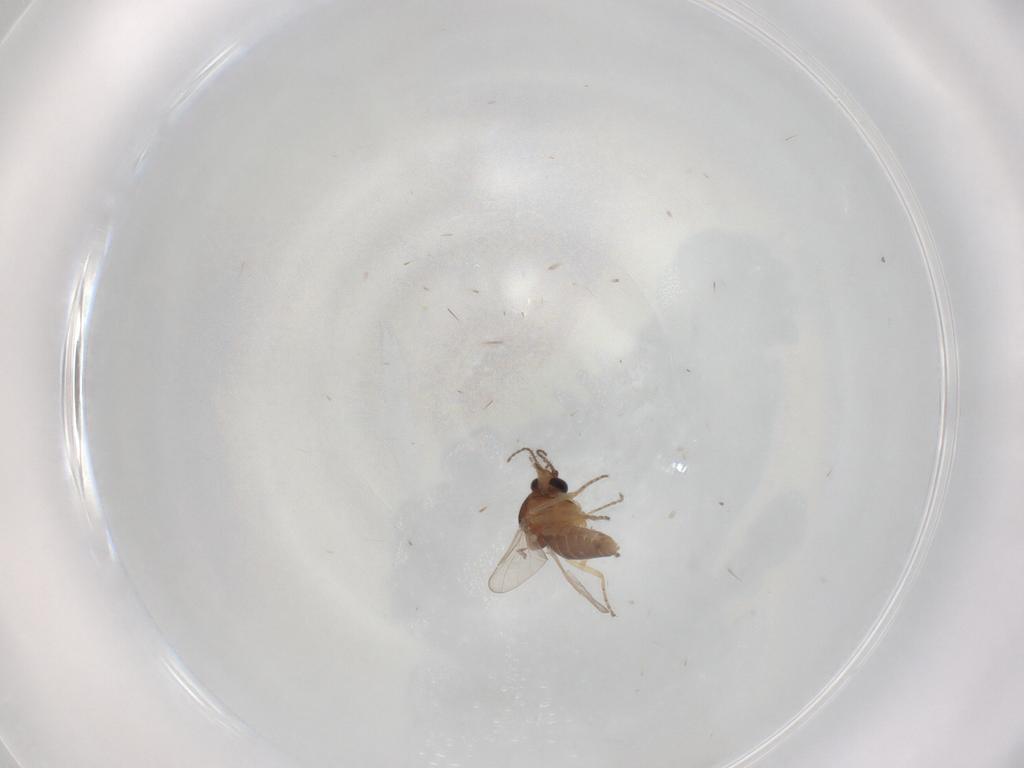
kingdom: Animalia
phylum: Arthropoda
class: Insecta
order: Diptera
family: Ceratopogonidae
